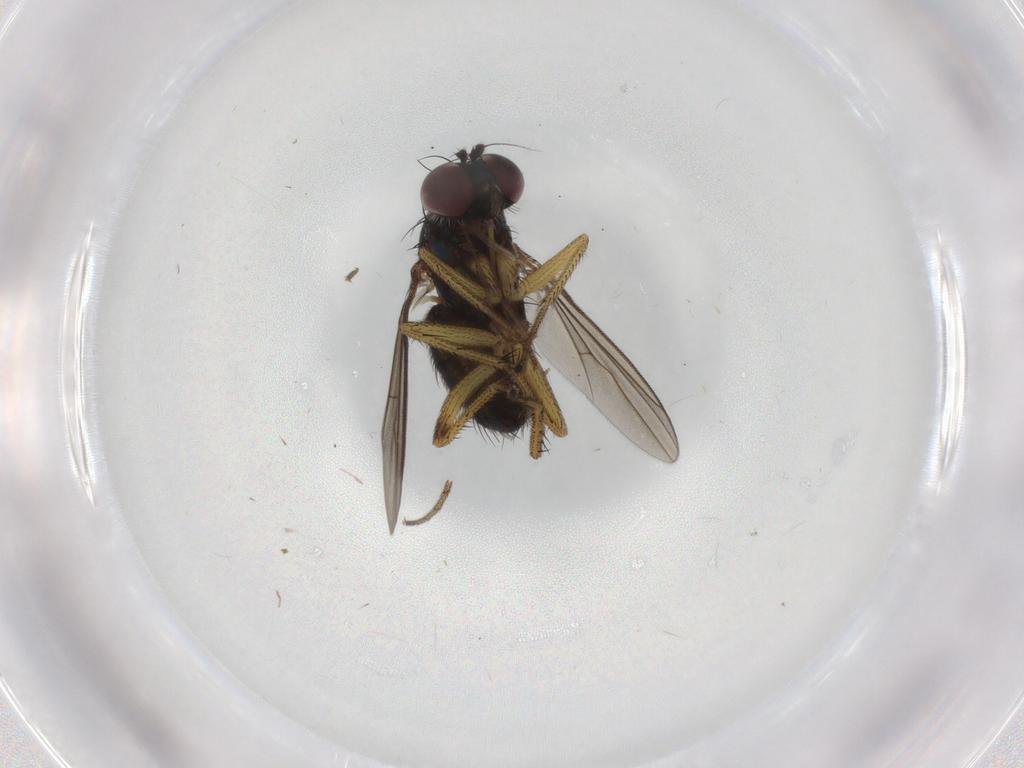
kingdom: Animalia
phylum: Arthropoda
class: Insecta
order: Diptera
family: Dolichopodidae
